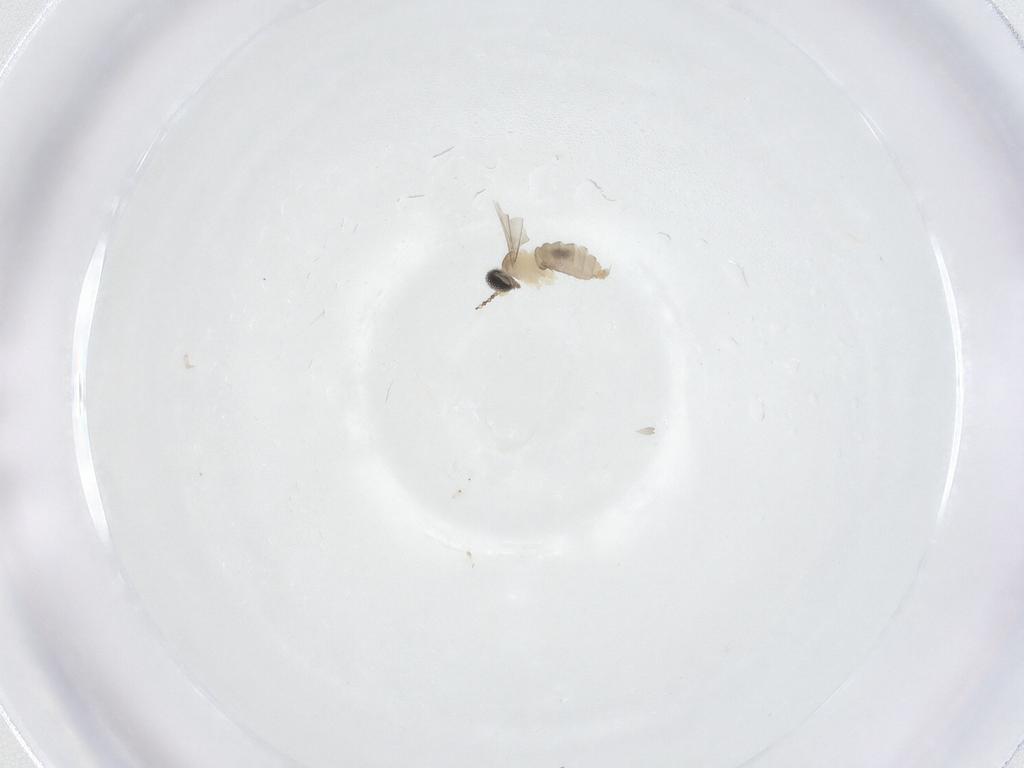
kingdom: Animalia
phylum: Arthropoda
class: Insecta
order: Diptera
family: Cecidomyiidae
